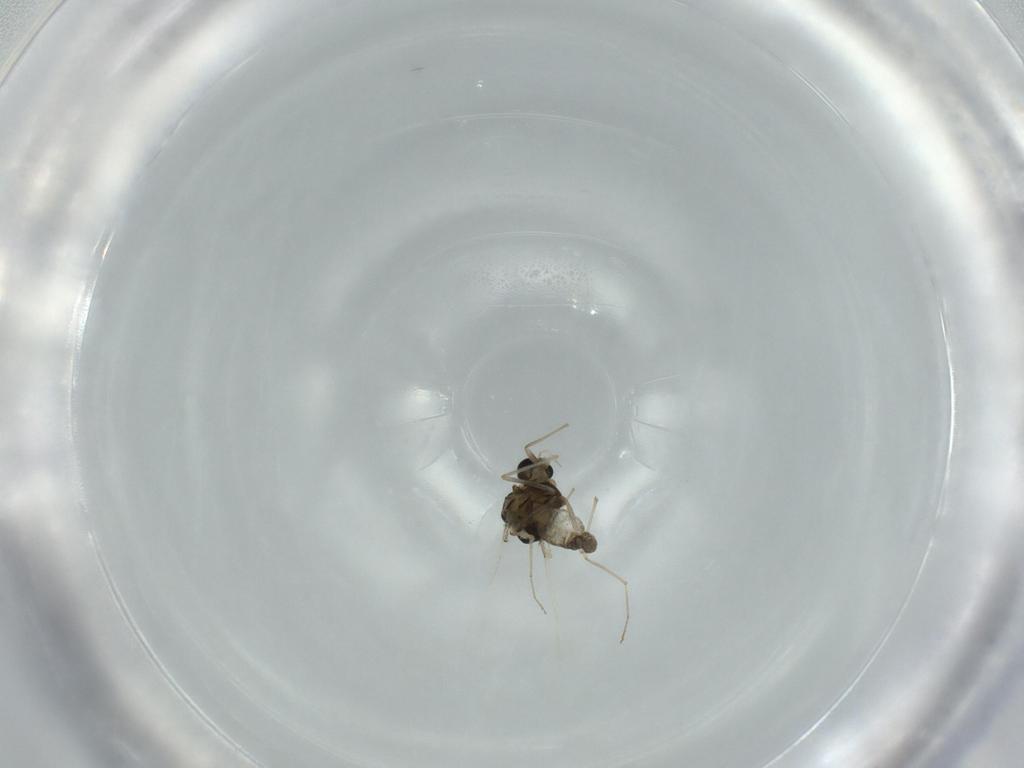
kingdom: Animalia
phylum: Arthropoda
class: Insecta
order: Diptera
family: Chironomidae
